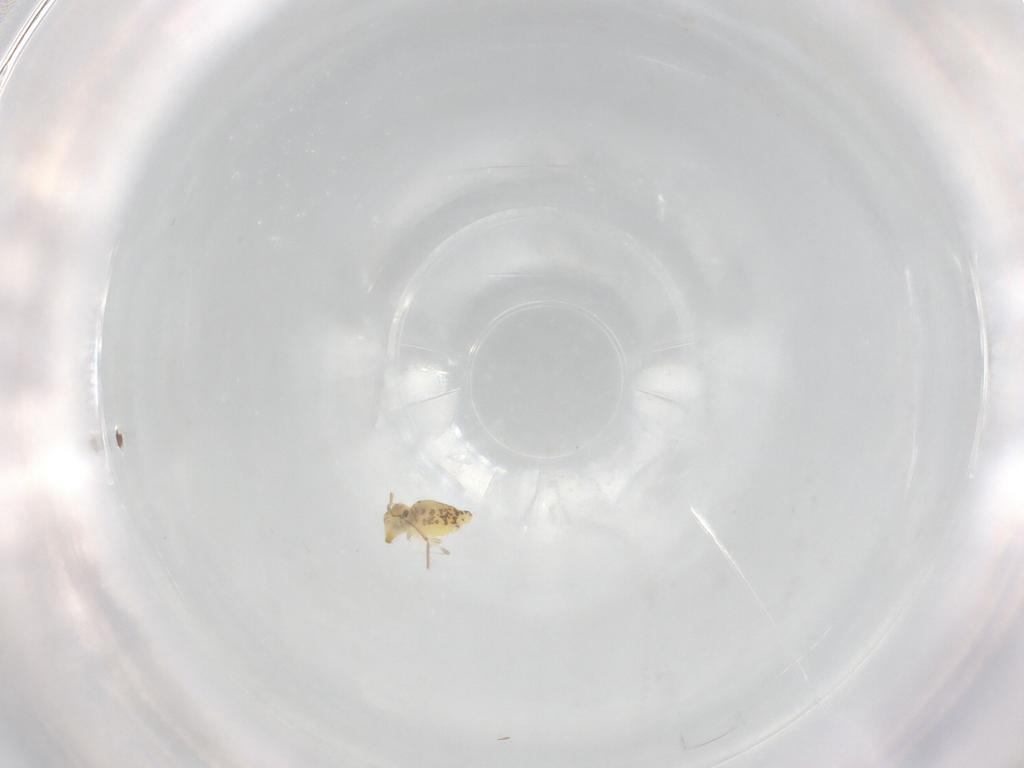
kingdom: Animalia
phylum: Arthropoda
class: Collembola
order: Symphypleona
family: Bourletiellidae
